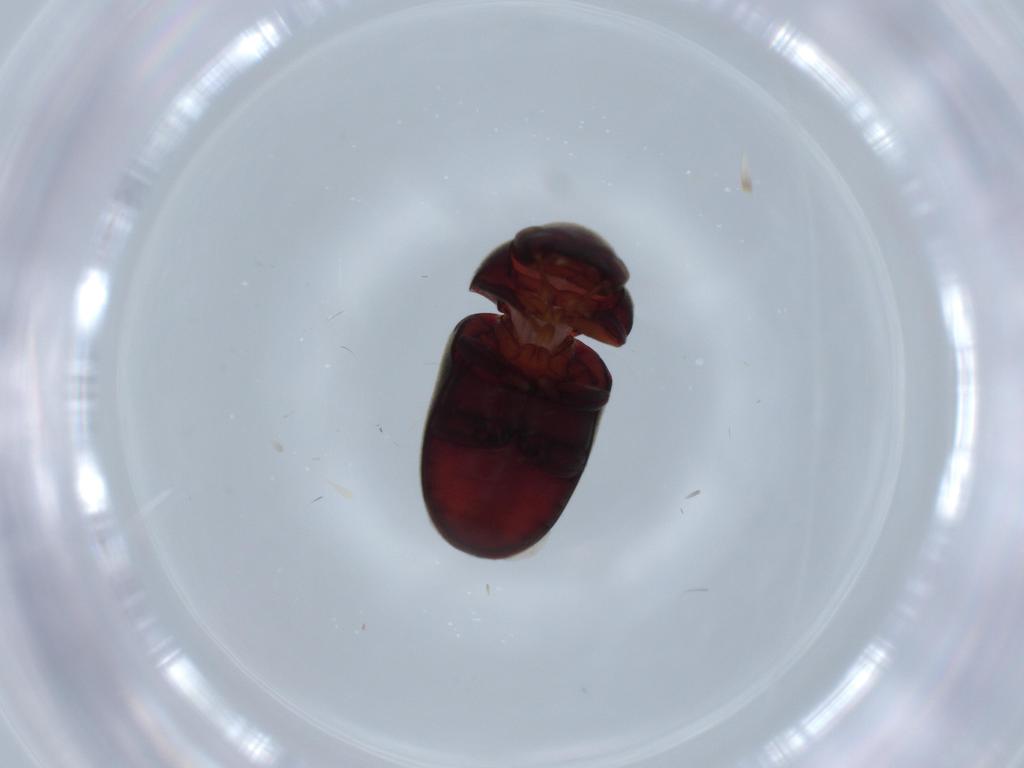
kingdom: Animalia
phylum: Arthropoda
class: Insecta
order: Coleoptera
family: Ptinidae
